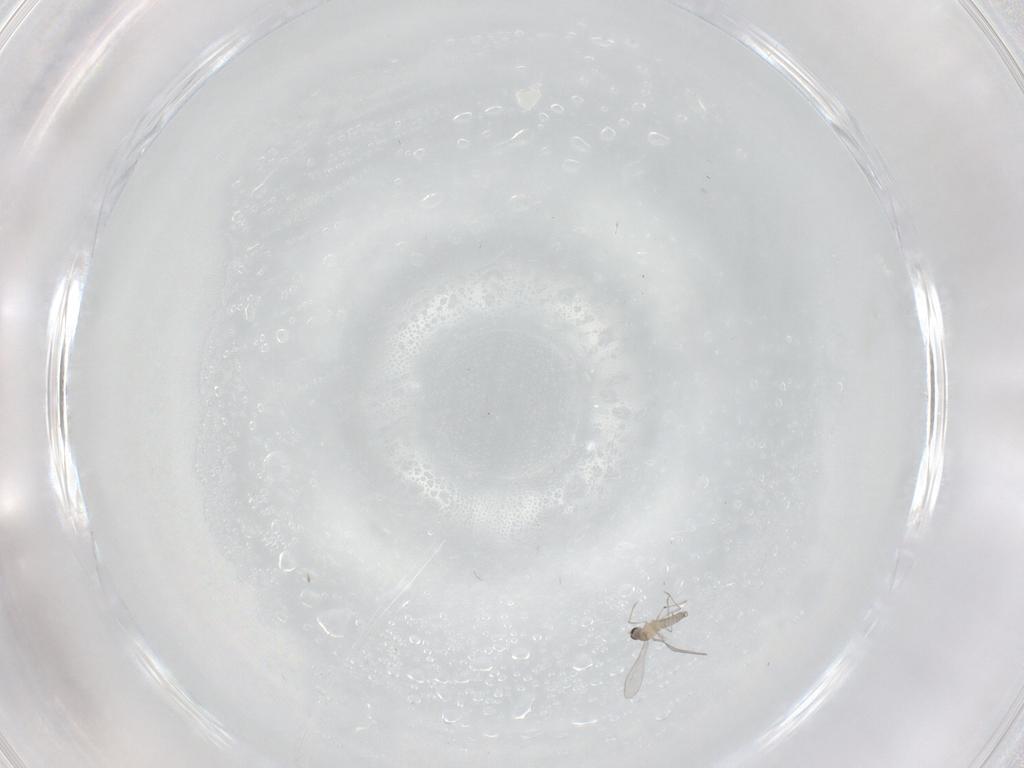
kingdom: Animalia
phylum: Arthropoda
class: Insecta
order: Diptera
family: Cecidomyiidae
